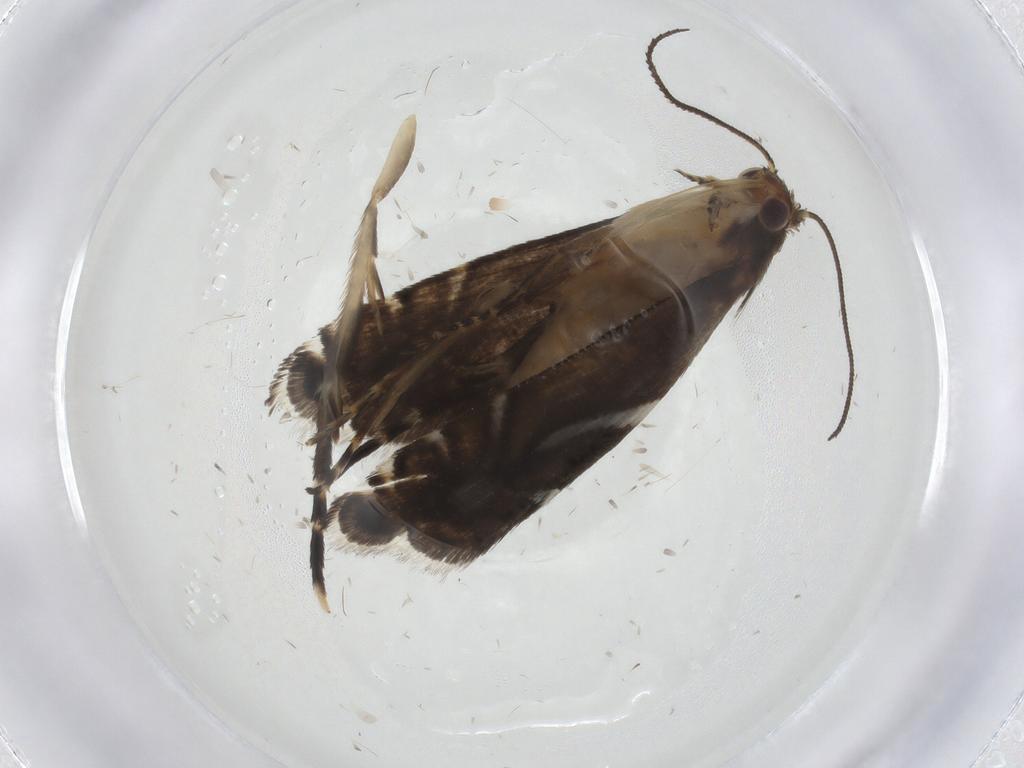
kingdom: Animalia
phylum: Arthropoda
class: Insecta
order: Lepidoptera
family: Glyphipterigidae
